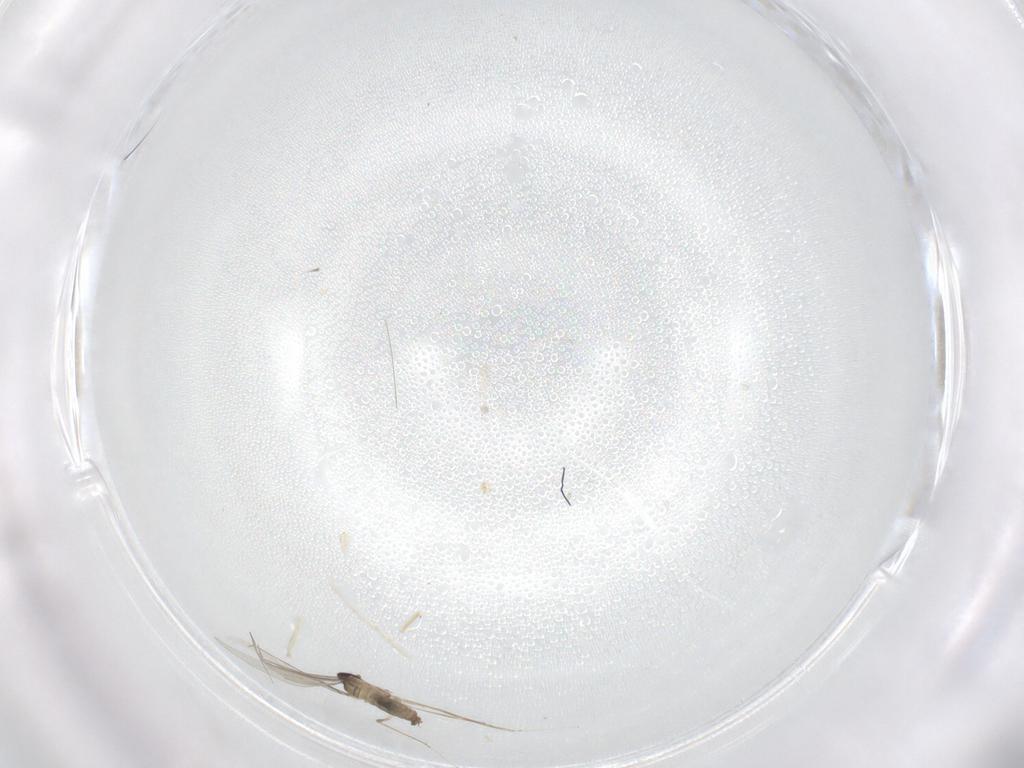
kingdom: Animalia
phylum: Arthropoda
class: Insecta
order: Diptera
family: Cecidomyiidae
